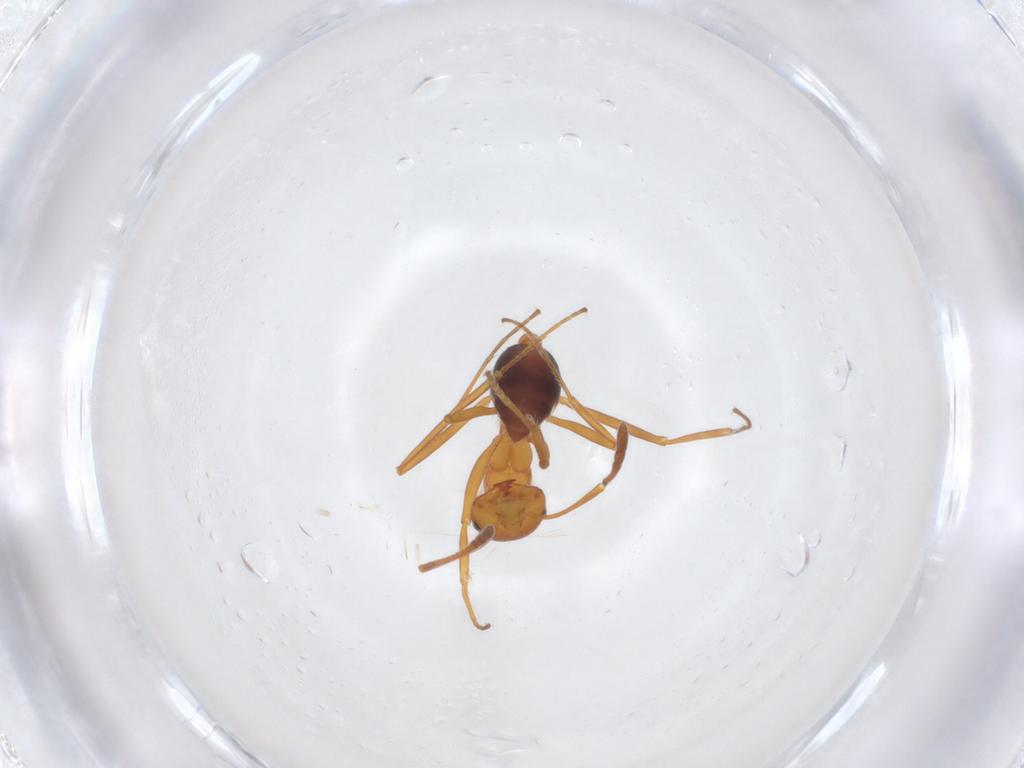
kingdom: Animalia
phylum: Arthropoda
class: Insecta
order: Hymenoptera
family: Formicidae
